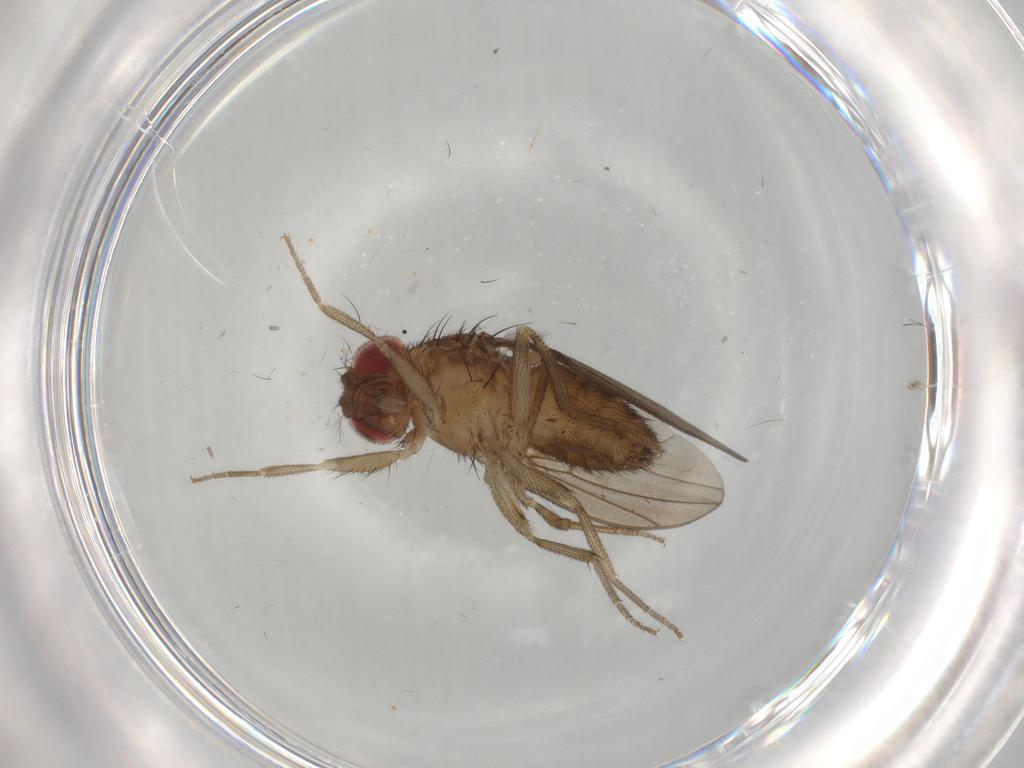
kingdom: Animalia
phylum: Arthropoda
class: Insecta
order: Diptera
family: Drosophilidae
